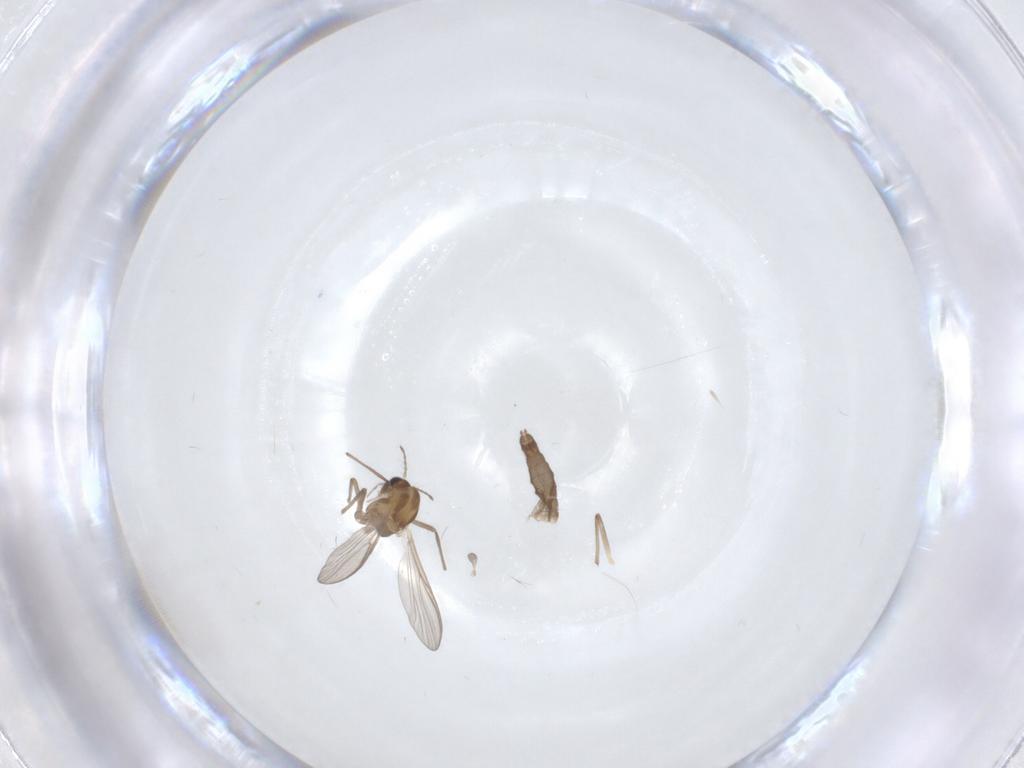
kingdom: Animalia
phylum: Arthropoda
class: Insecta
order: Diptera
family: Chironomidae
